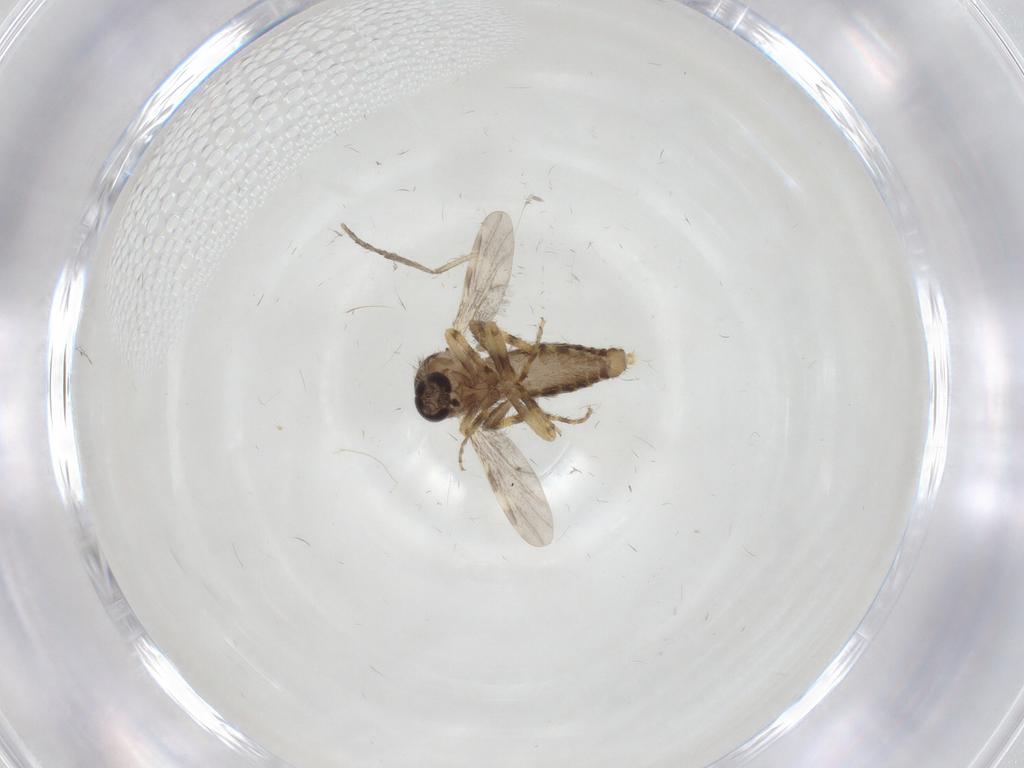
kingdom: Animalia
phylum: Arthropoda
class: Insecta
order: Diptera
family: Ceratopogonidae
